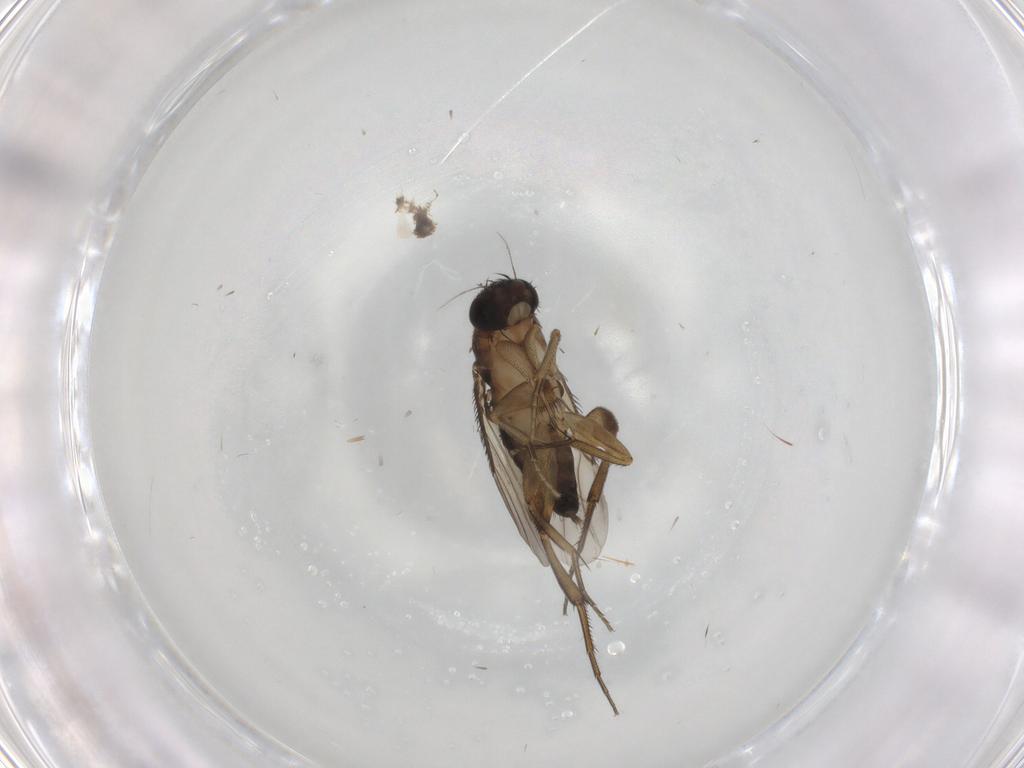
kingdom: Animalia
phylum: Arthropoda
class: Insecta
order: Diptera
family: Phoridae
